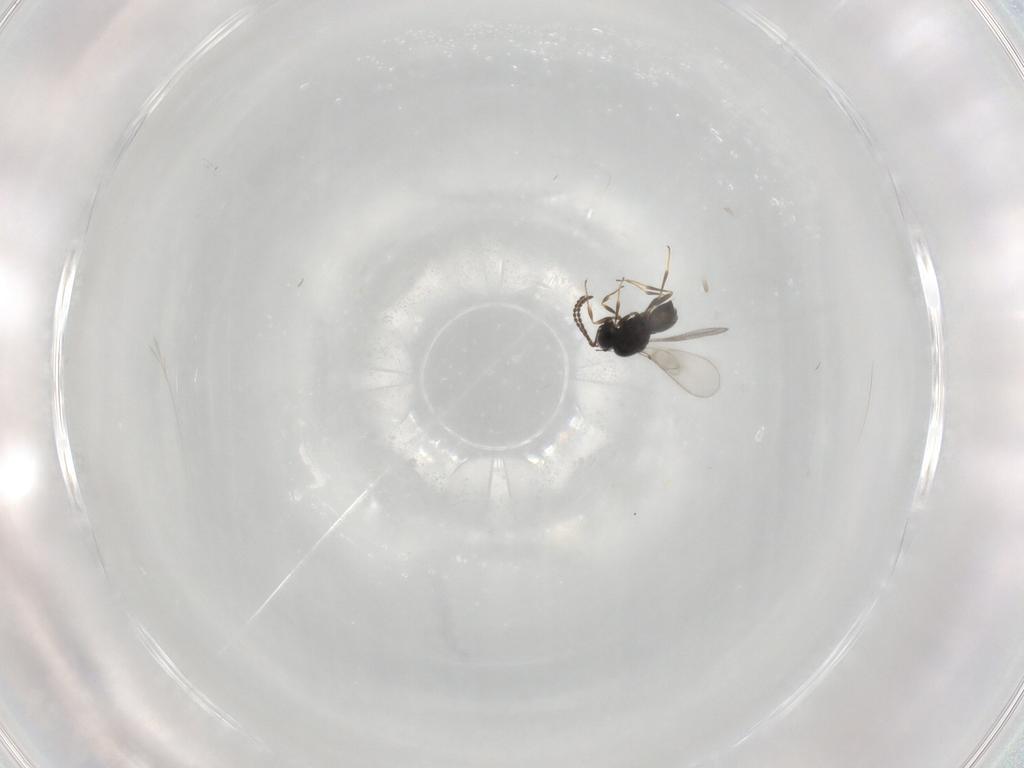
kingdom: Animalia
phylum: Arthropoda
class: Insecta
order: Hymenoptera
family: Scelionidae
